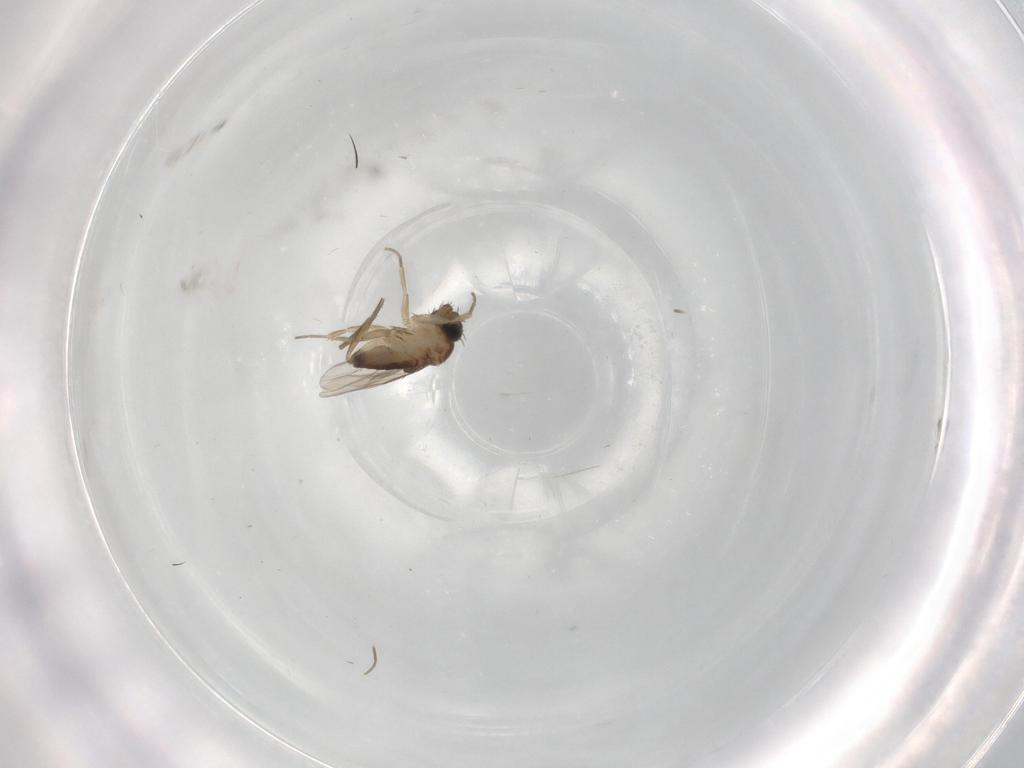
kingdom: Animalia
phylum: Arthropoda
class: Insecta
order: Diptera
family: Phoridae
